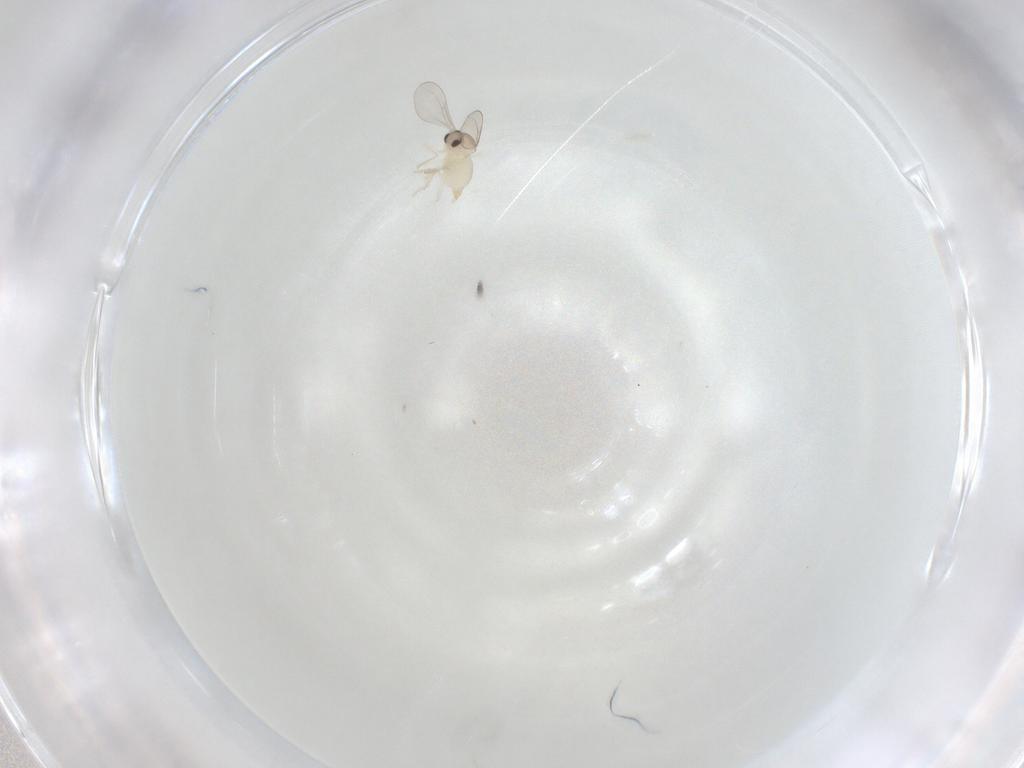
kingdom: Animalia
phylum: Arthropoda
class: Insecta
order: Diptera
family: Cecidomyiidae
